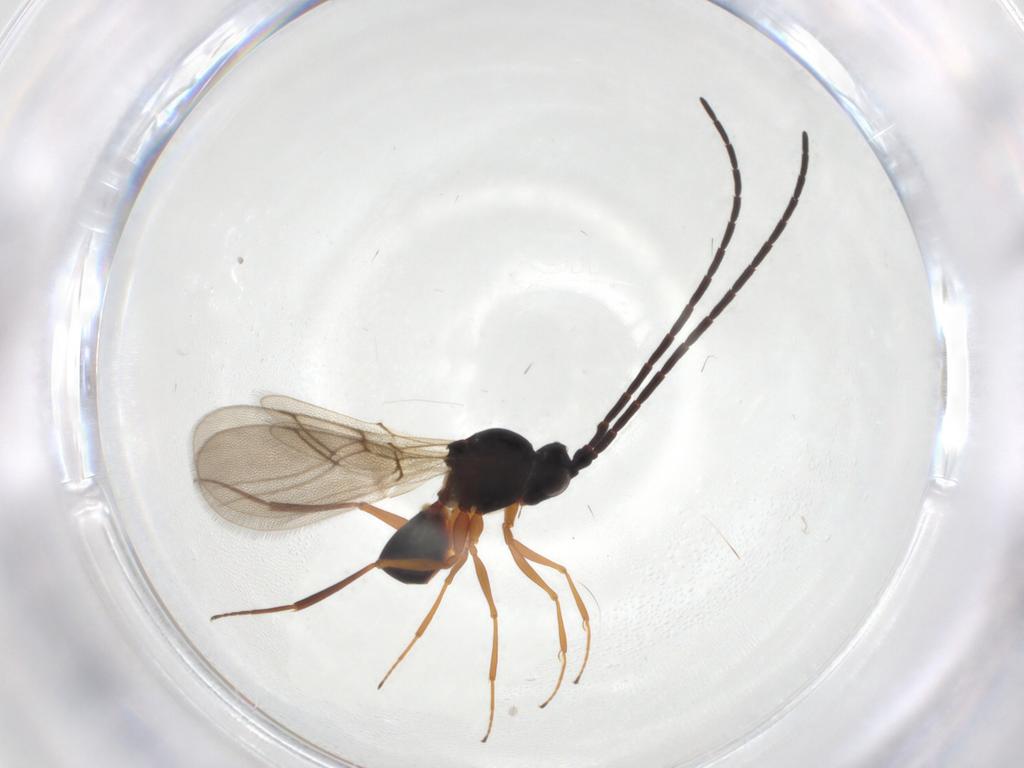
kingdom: Animalia
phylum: Arthropoda
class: Insecta
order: Hymenoptera
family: Figitidae
